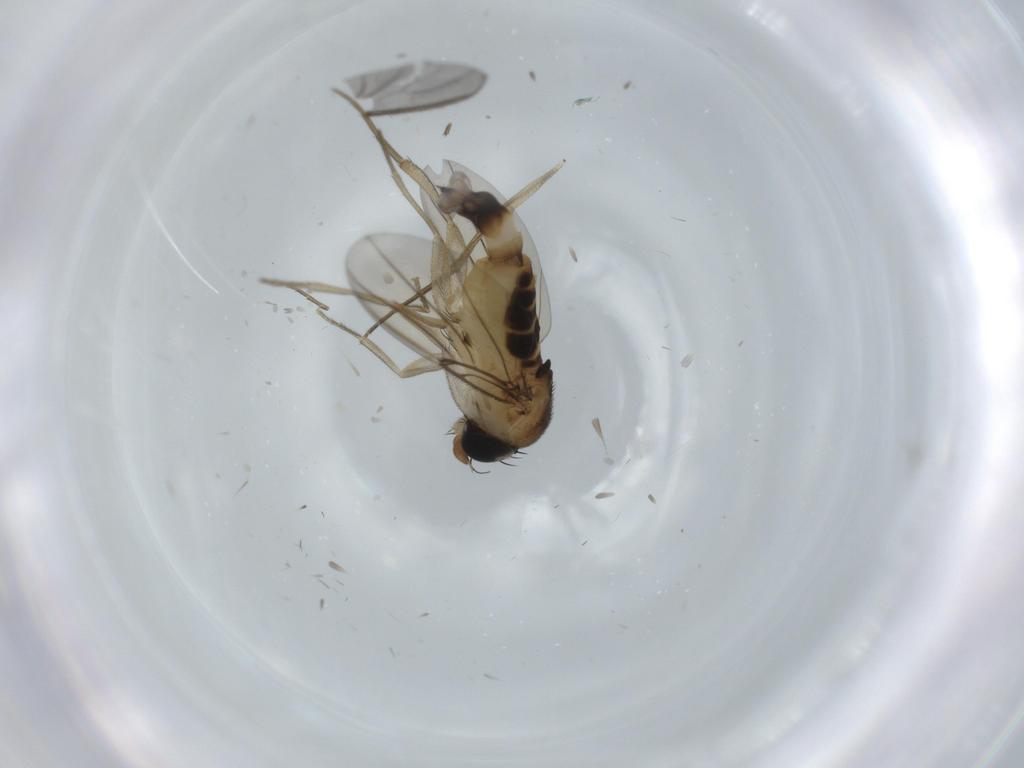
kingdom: Animalia
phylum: Arthropoda
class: Insecta
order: Diptera
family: Phoridae
